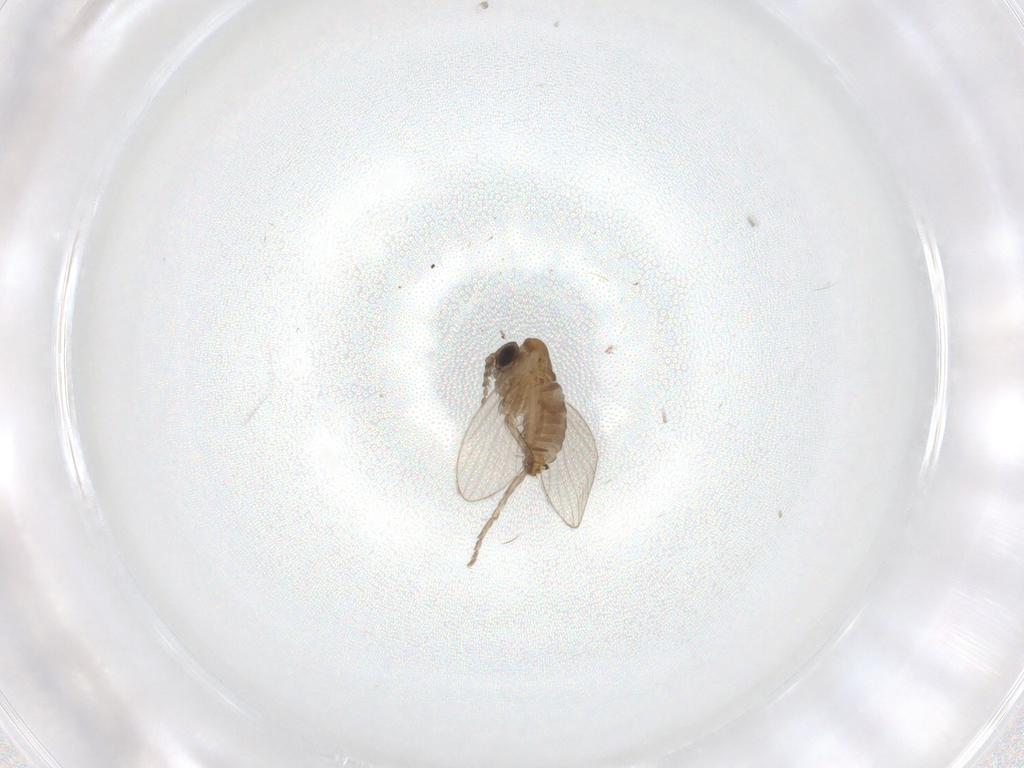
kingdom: Animalia
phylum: Arthropoda
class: Insecta
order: Diptera
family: Psychodidae
